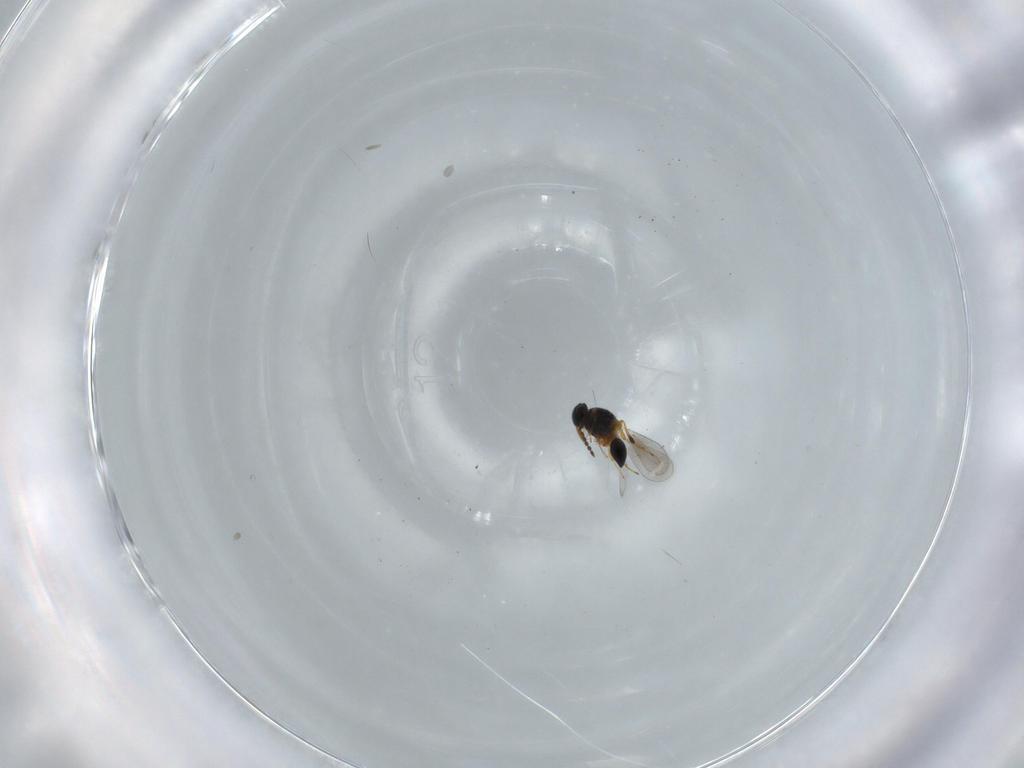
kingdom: Animalia
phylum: Arthropoda
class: Insecta
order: Hymenoptera
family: Platygastridae
